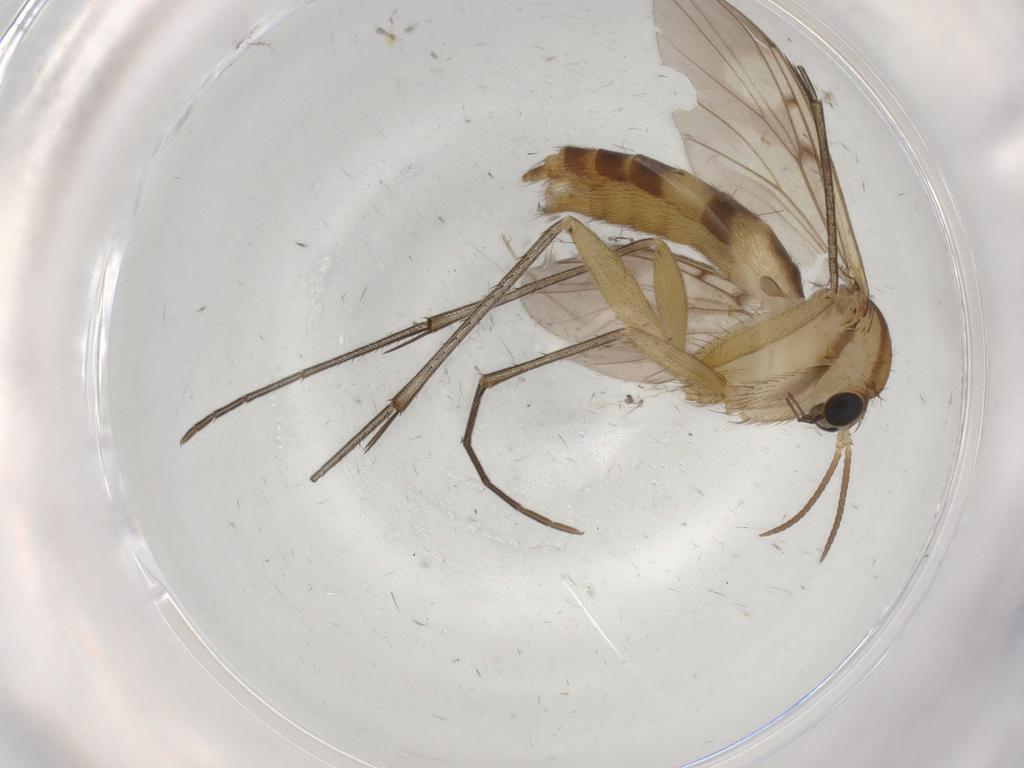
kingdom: Animalia
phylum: Arthropoda
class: Insecta
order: Diptera
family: Mycetophilidae
